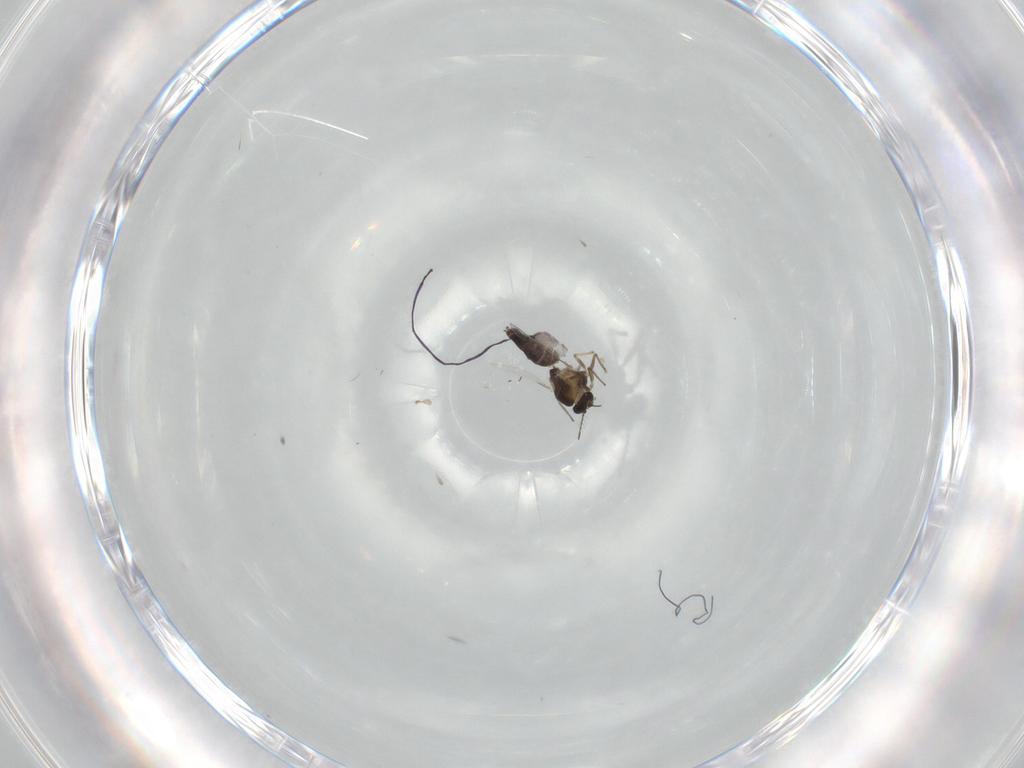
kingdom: Animalia
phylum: Arthropoda
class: Insecta
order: Diptera
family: Chironomidae
